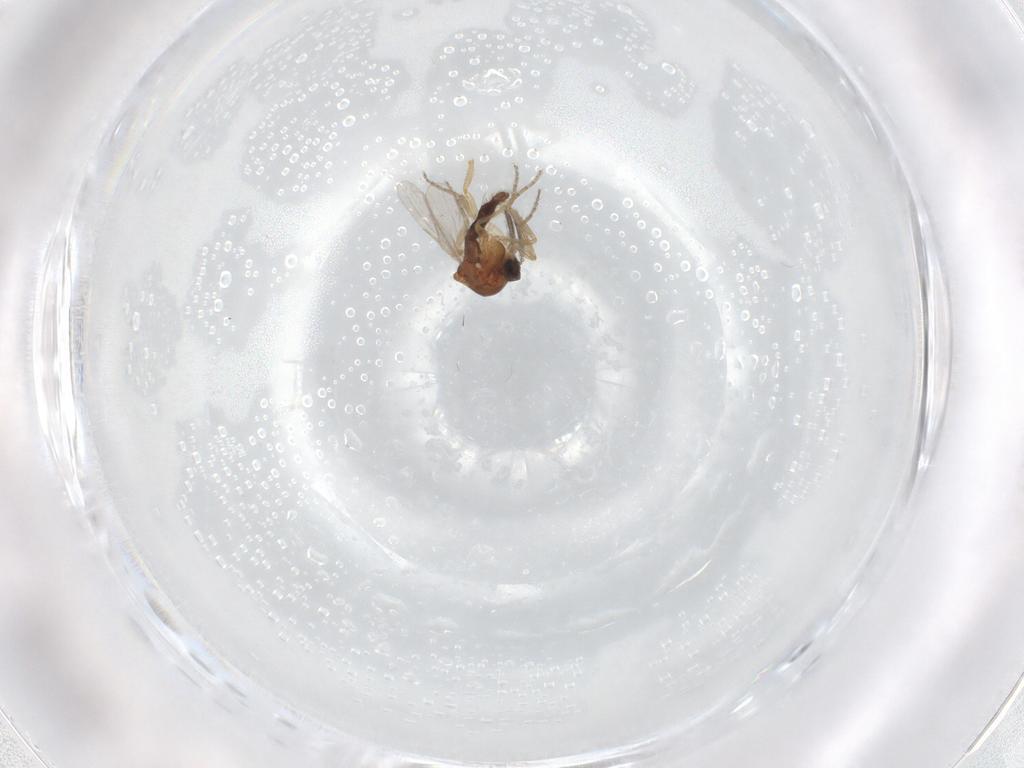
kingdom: Animalia
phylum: Arthropoda
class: Insecta
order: Diptera
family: Ceratopogonidae
